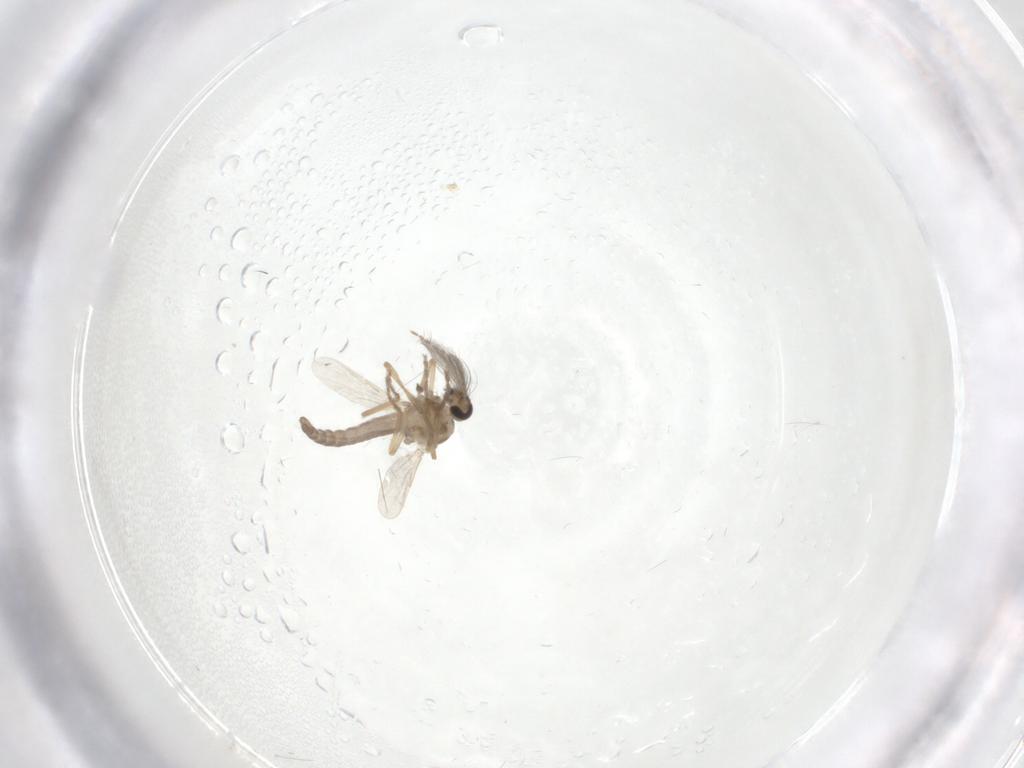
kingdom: Animalia
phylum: Arthropoda
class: Insecta
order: Diptera
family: Ceratopogonidae
